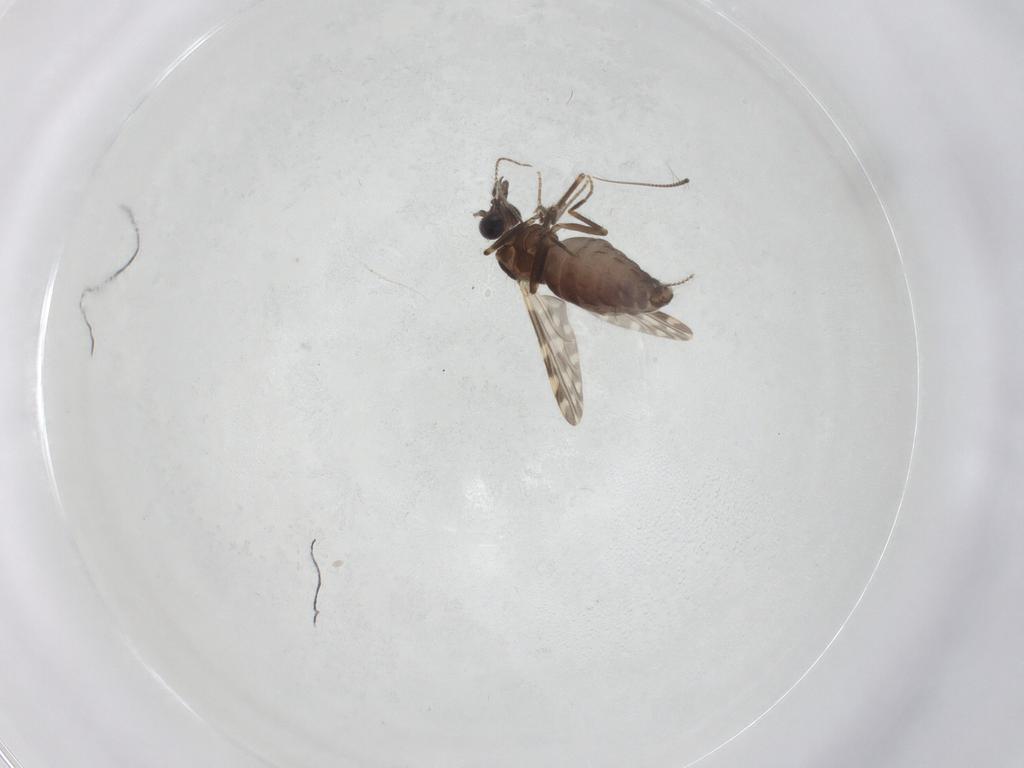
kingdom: Animalia
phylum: Arthropoda
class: Insecta
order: Diptera
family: Ceratopogonidae
